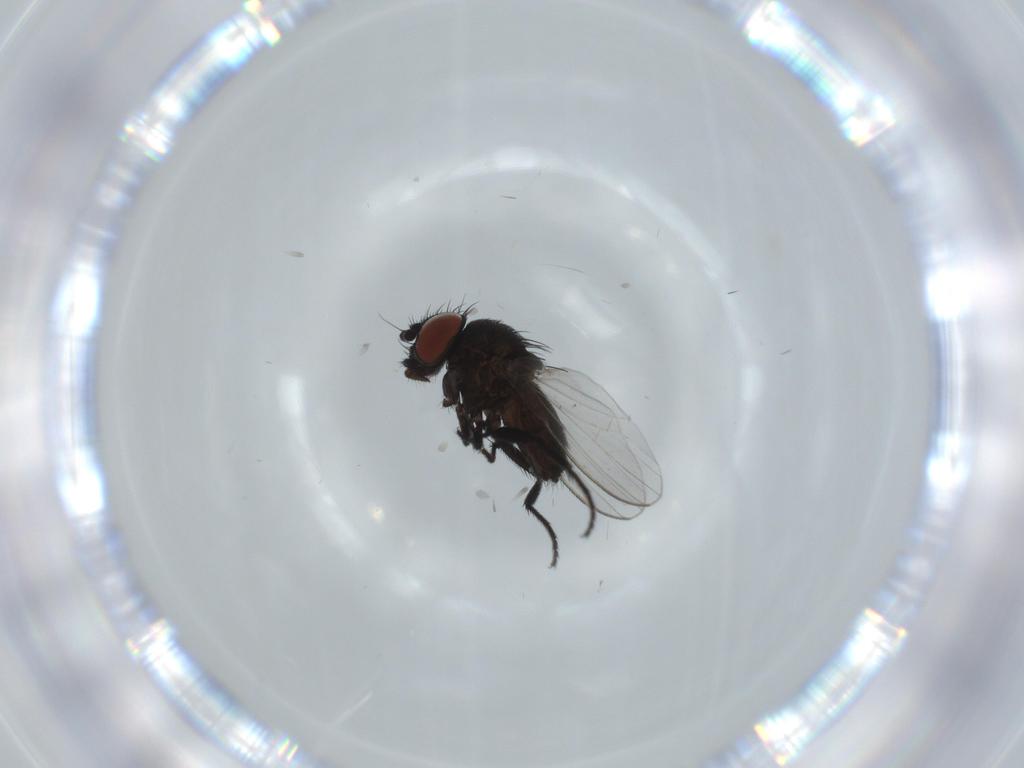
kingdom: Animalia
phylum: Arthropoda
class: Insecta
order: Diptera
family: Milichiidae
